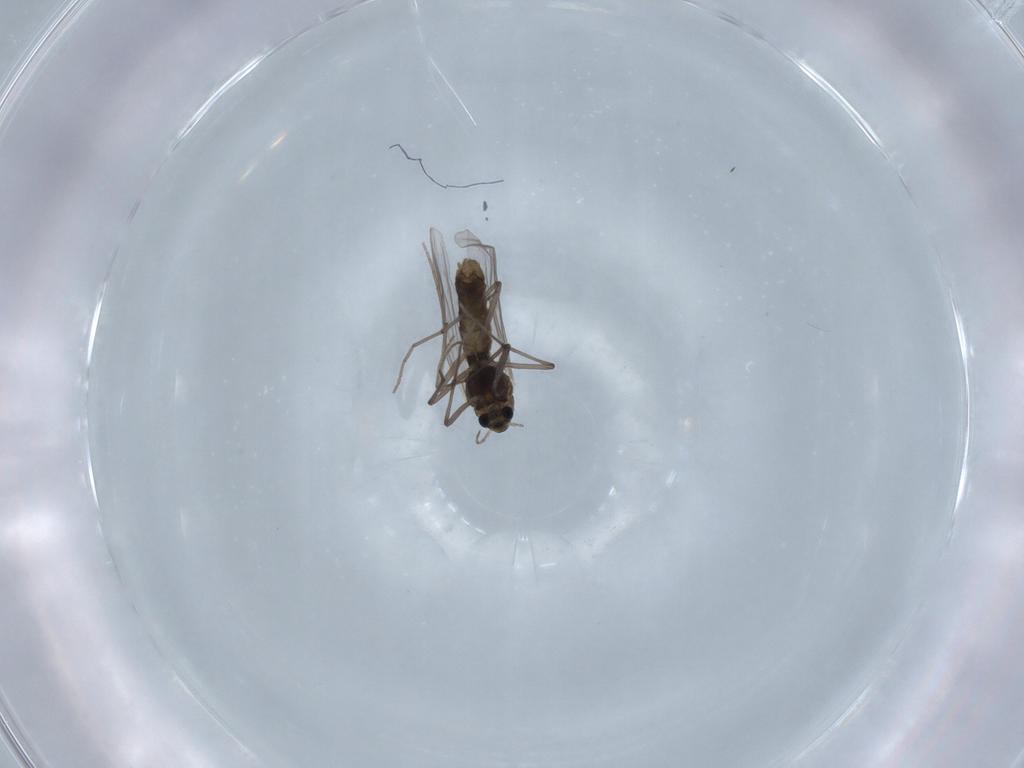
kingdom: Animalia
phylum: Arthropoda
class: Insecta
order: Diptera
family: Chironomidae
